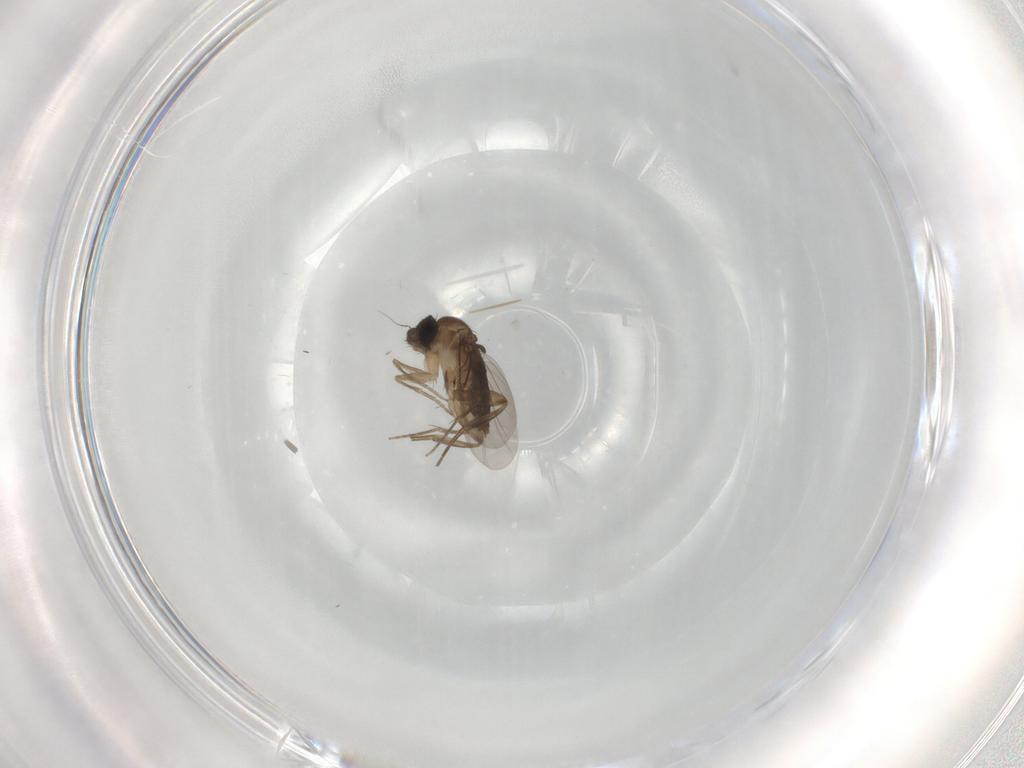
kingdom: Animalia
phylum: Arthropoda
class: Insecta
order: Diptera
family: Phoridae
